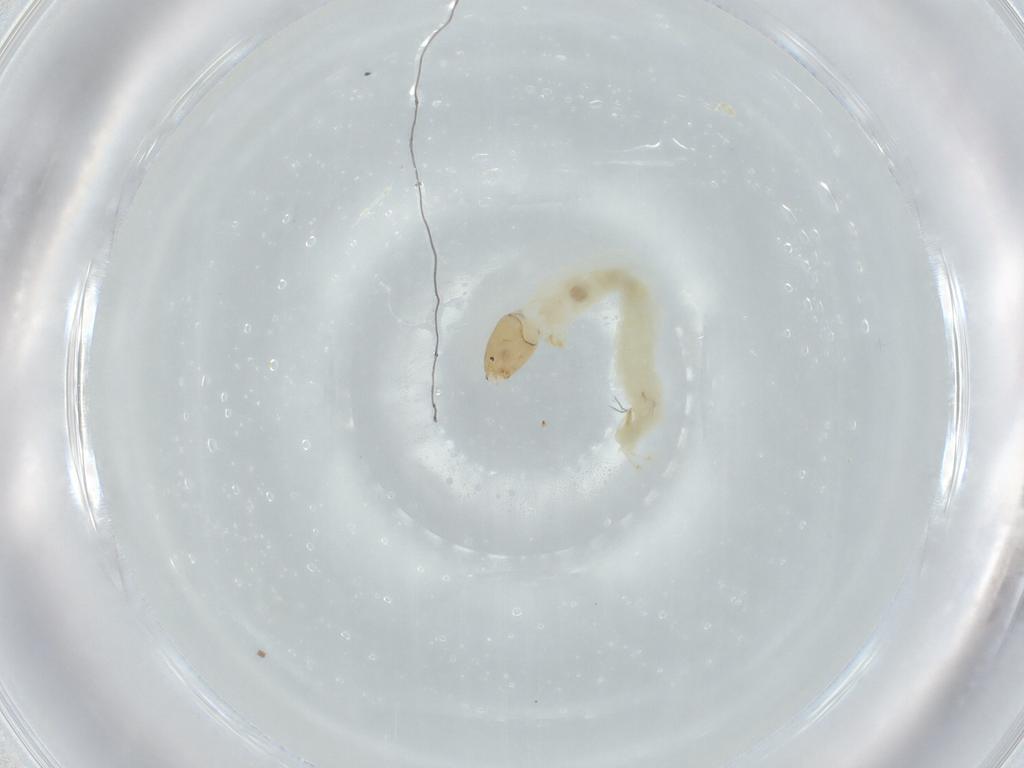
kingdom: Animalia
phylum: Arthropoda
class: Insecta
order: Diptera
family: Chironomidae
